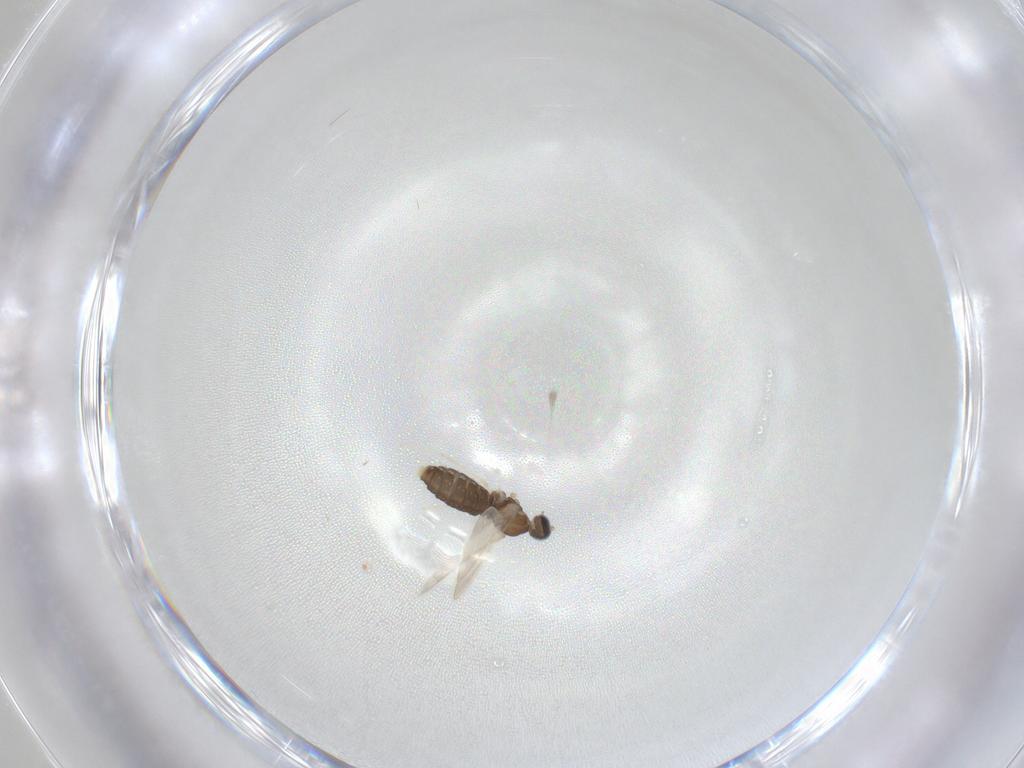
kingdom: Animalia
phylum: Arthropoda
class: Insecta
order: Diptera
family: Cecidomyiidae
